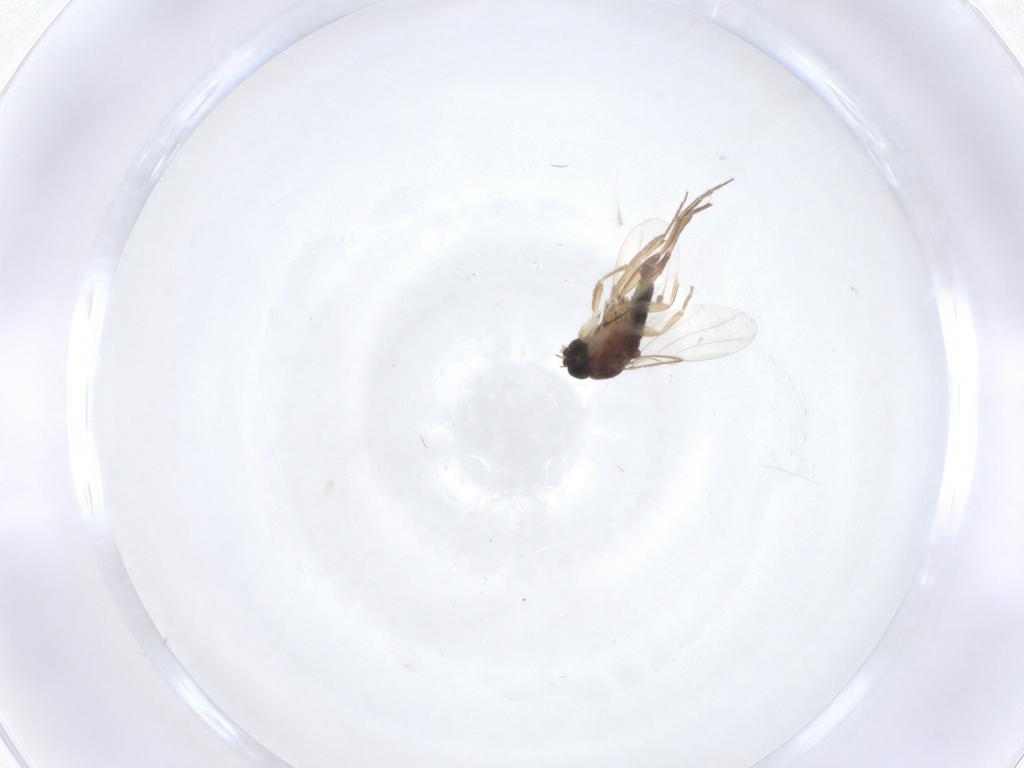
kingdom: Animalia
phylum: Arthropoda
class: Insecta
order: Diptera
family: Phoridae
